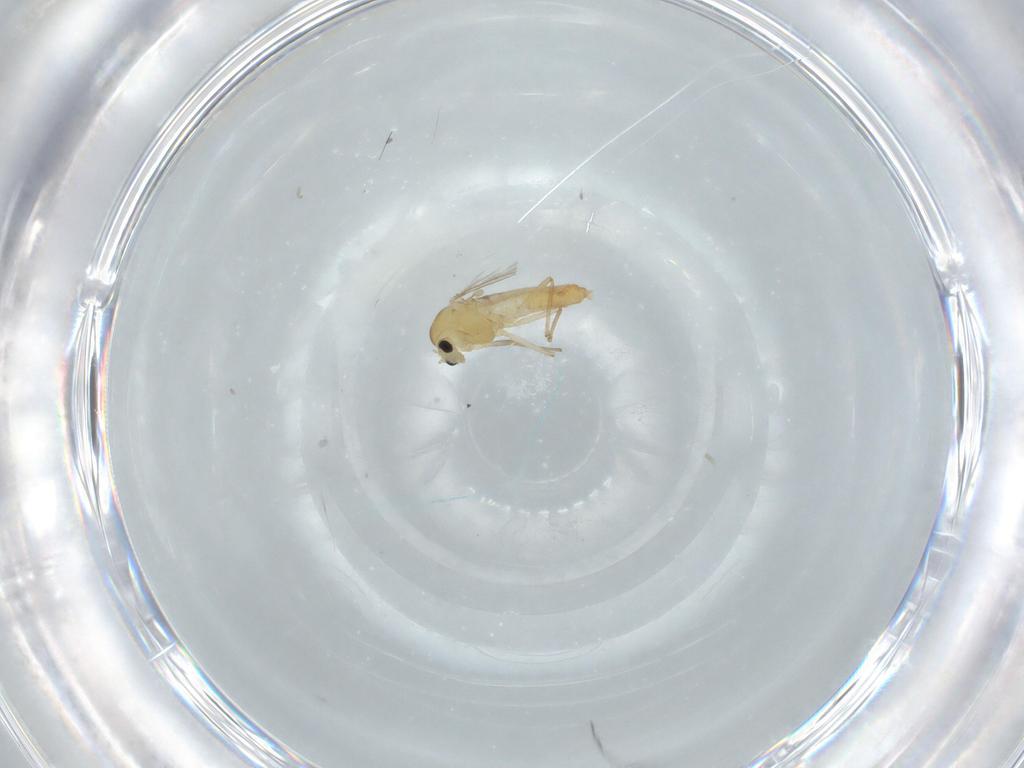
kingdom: Animalia
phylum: Arthropoda
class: Insecta
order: Diptera
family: Chironomidae
